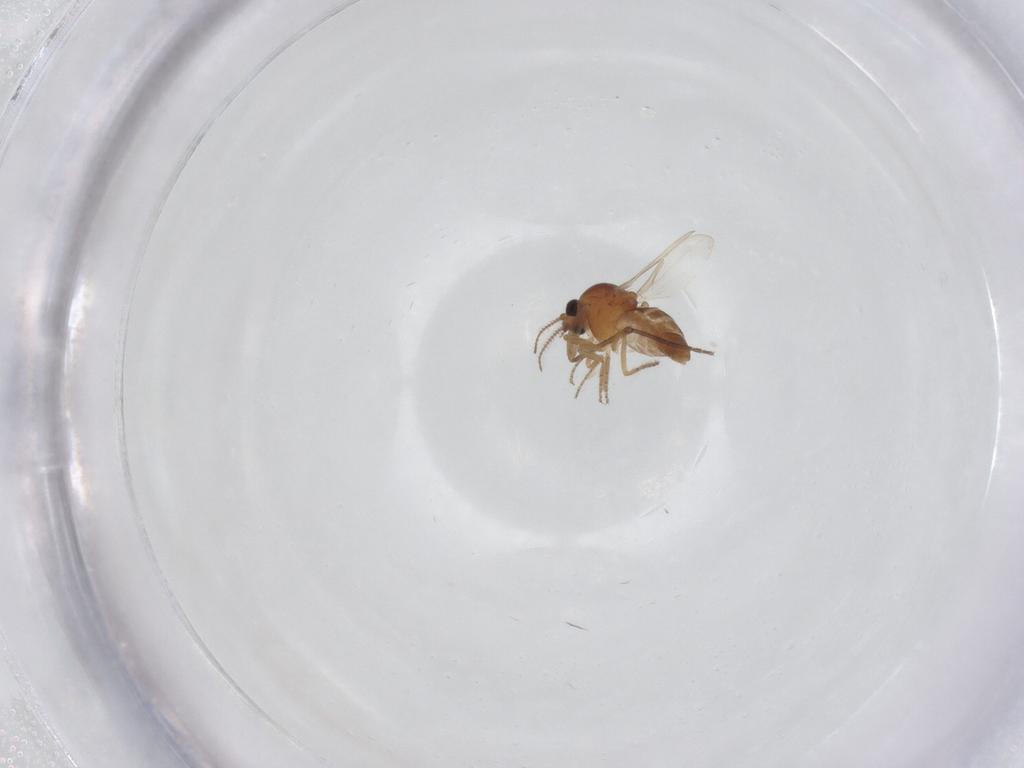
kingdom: Animalia
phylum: Arthropoda
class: Insecta
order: Diptera
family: Ceratopogonidae
